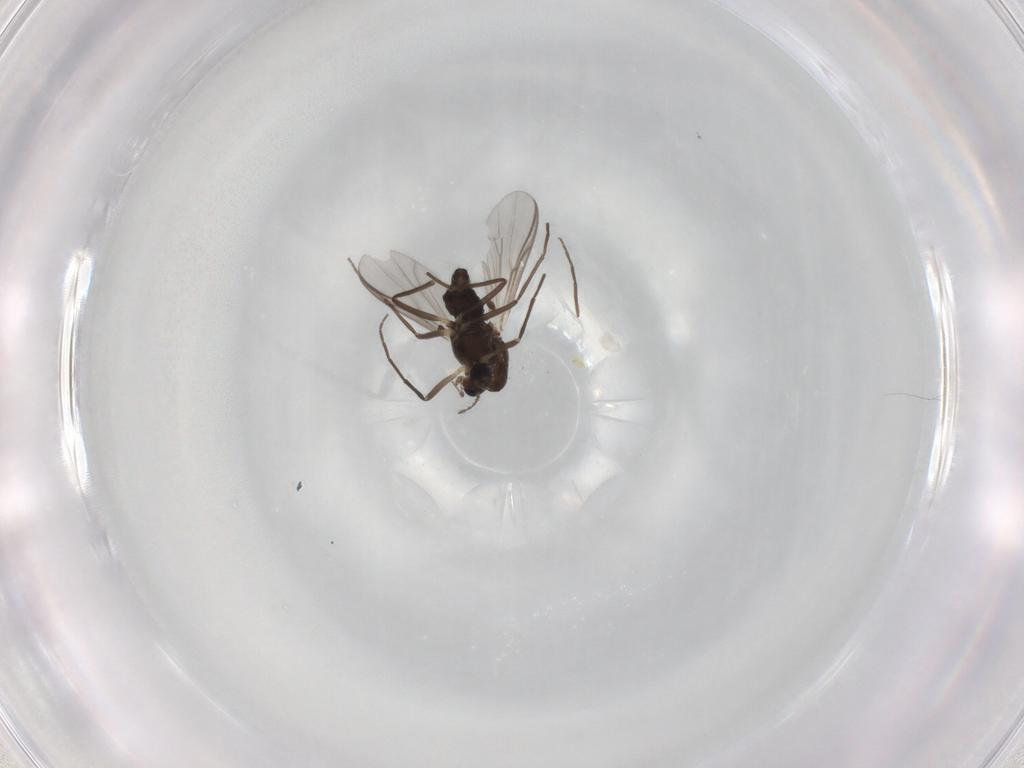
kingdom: Animalia
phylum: Arthropoda
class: Insecta
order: Diptera
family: Chironomidae
